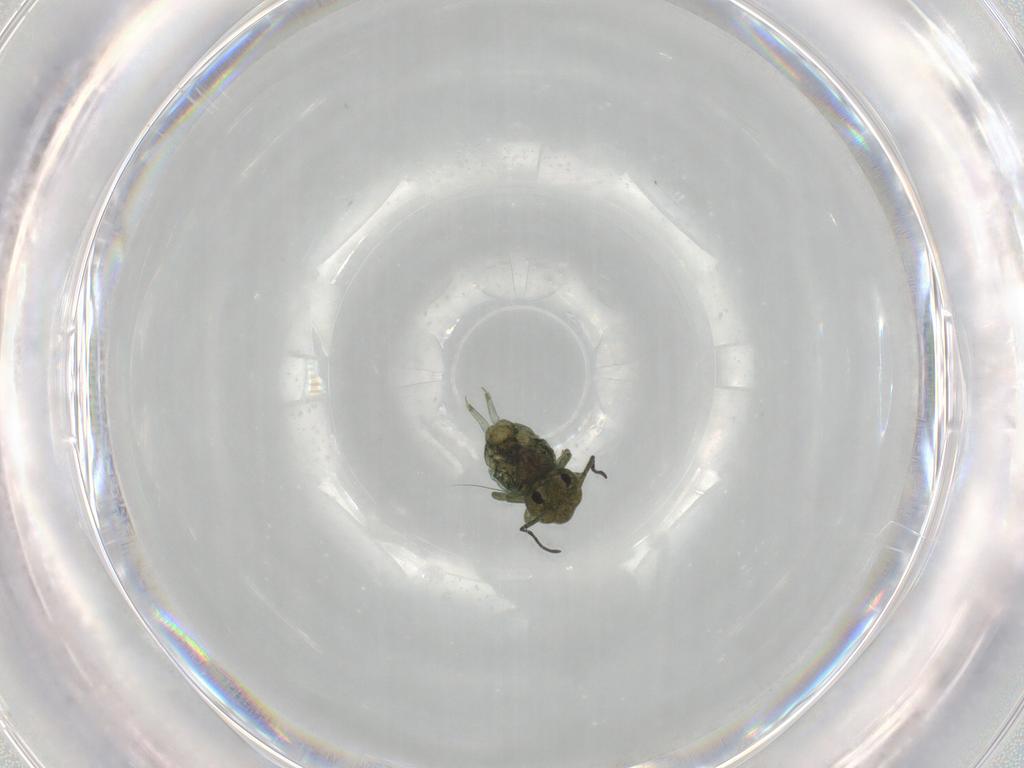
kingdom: Animalia
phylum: Arthropoda
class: Collembola
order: Symphypleona
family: Sminthuridae
